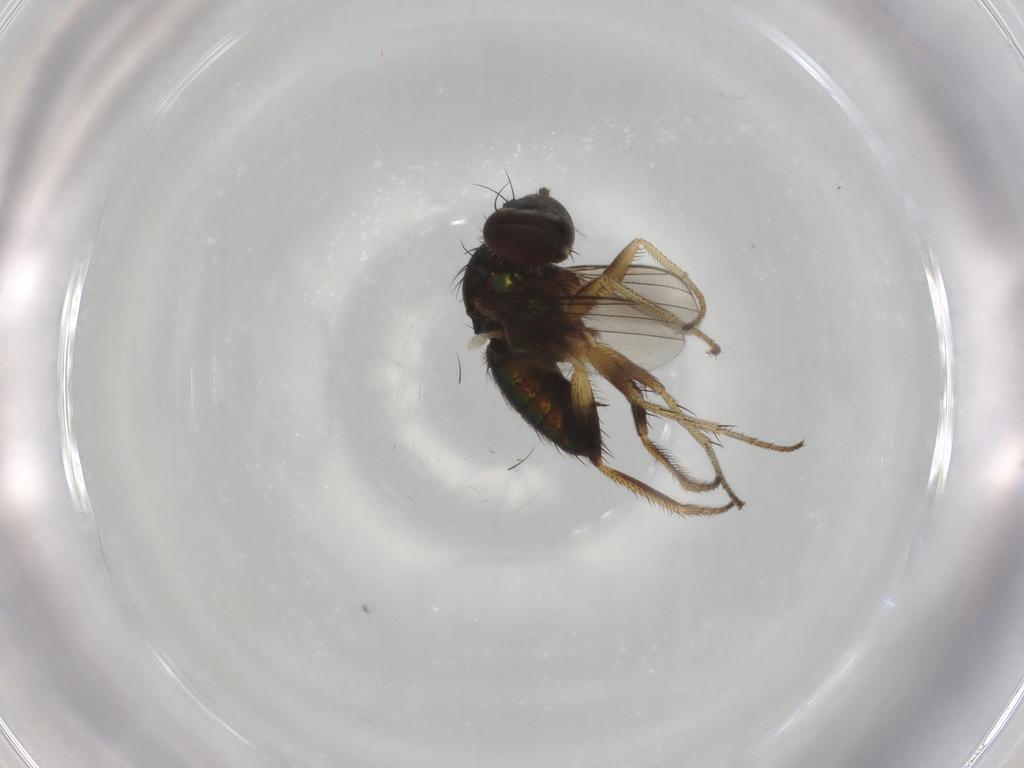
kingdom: Animalia
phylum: Arthropoda
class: Insecta
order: Diptera
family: Dolichopodidae
